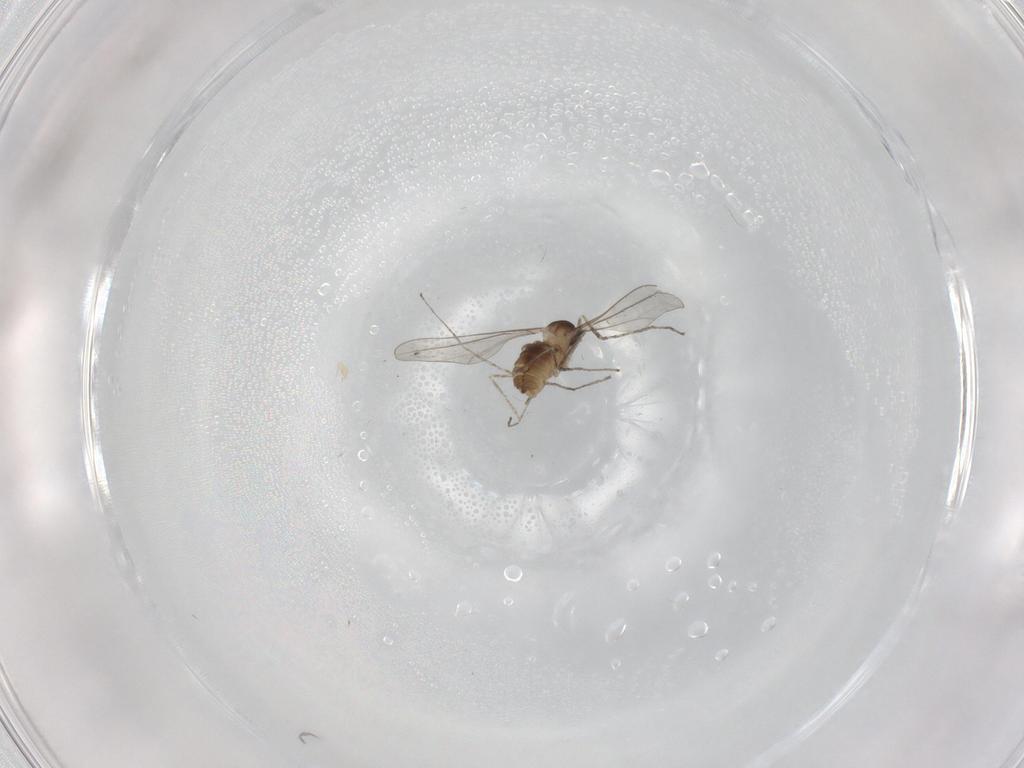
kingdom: Animalia
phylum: Arthropoda
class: Insecta
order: Diptera
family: Cecidomyiidae
